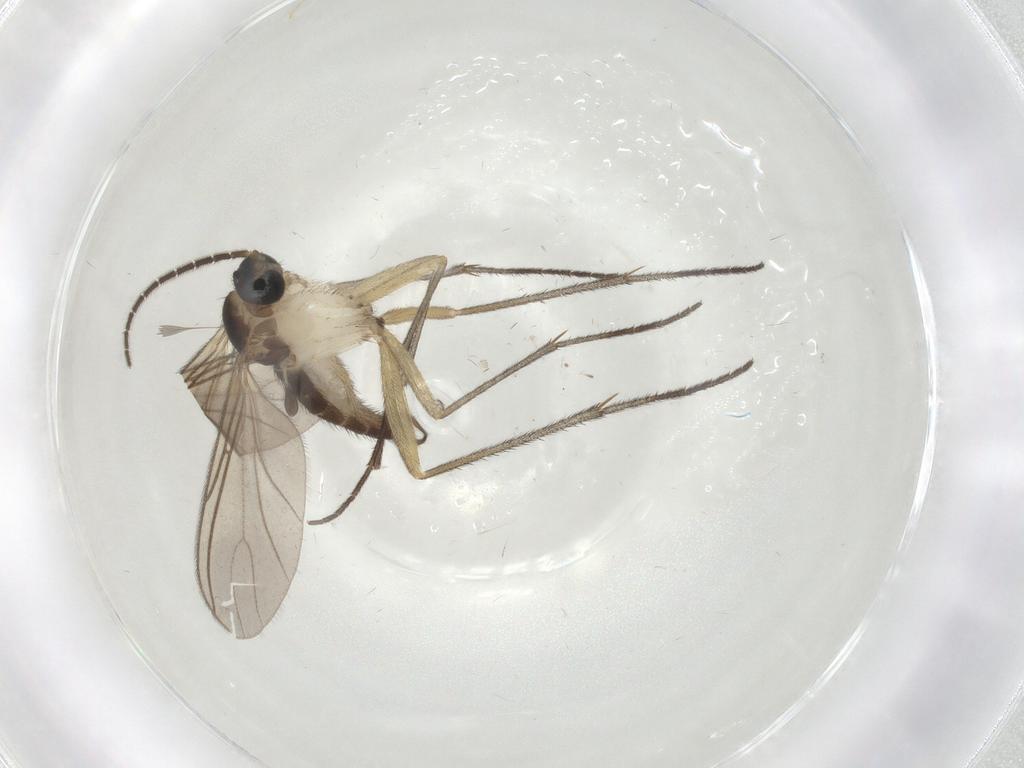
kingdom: Animalia
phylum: Arthropoda
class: Insecta
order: Diptera
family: Sciaridae
